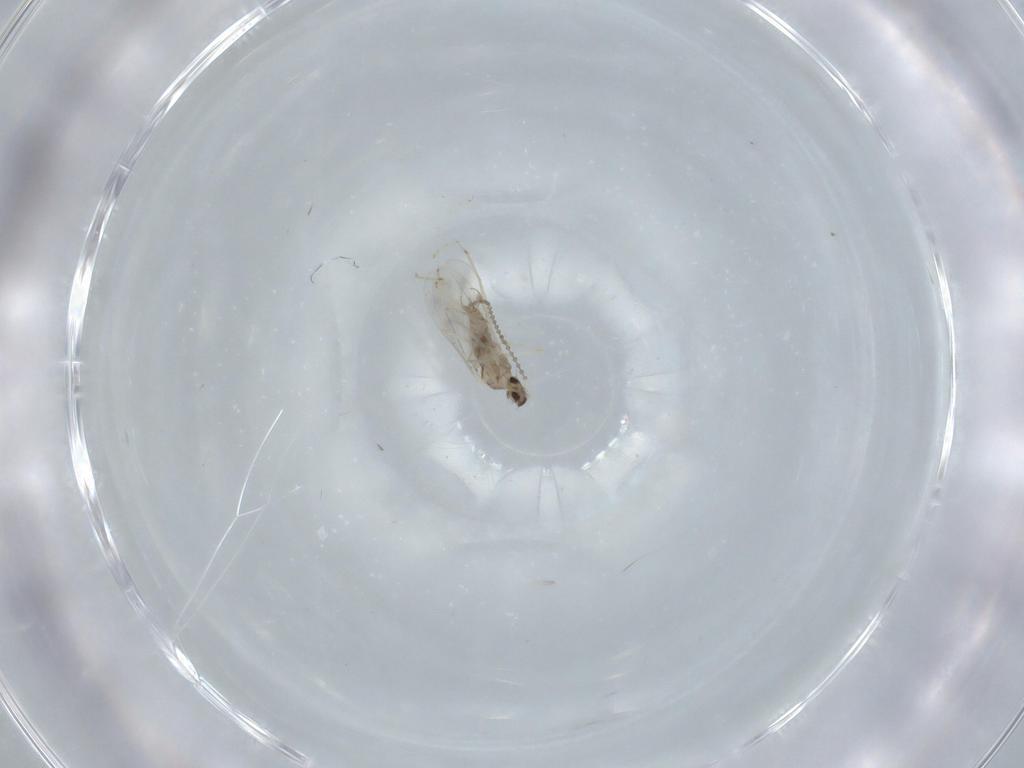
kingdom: Animalia
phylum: Arthropoda
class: Insecta
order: Diptera
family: Cecidomyiidae
